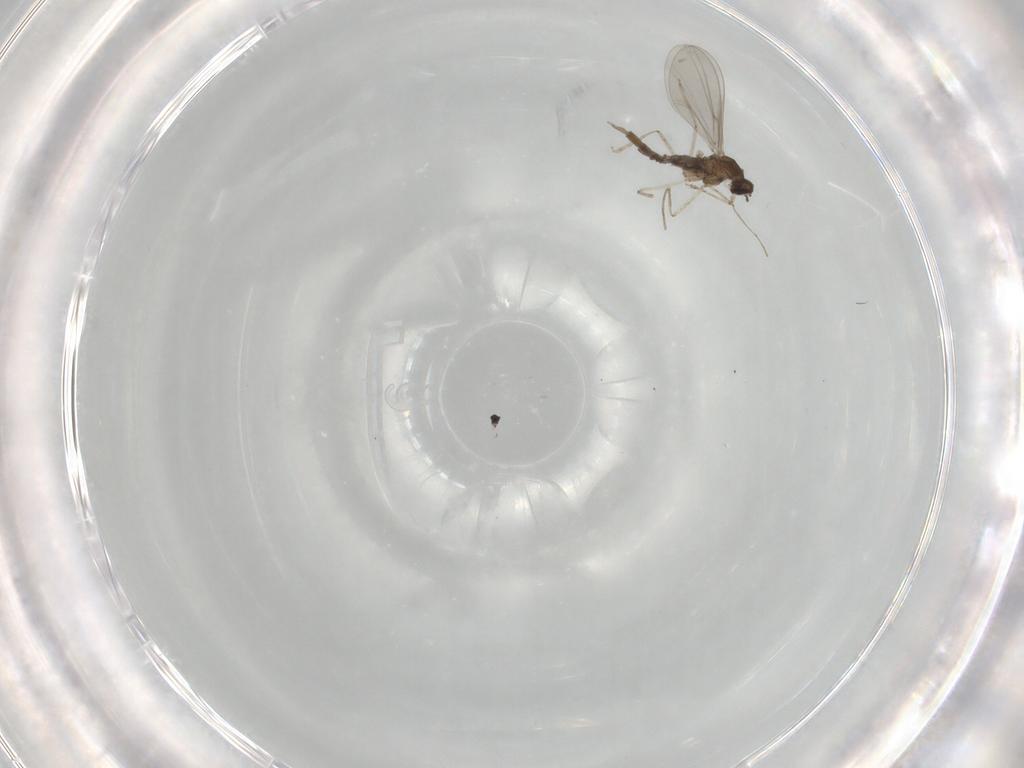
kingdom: Animalia
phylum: Arthropoda
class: Insecta
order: Diptera
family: Cecidomyiidae
